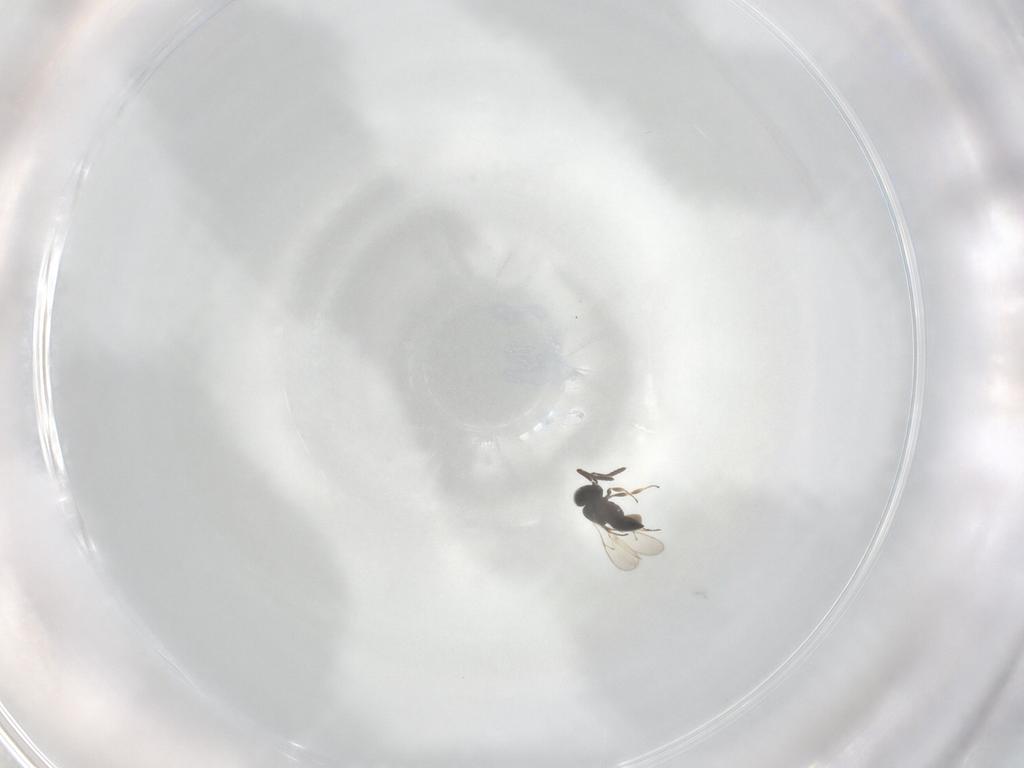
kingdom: Animalia
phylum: Arthropoda
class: Insecta
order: Hymenoptera
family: Scelionidae
